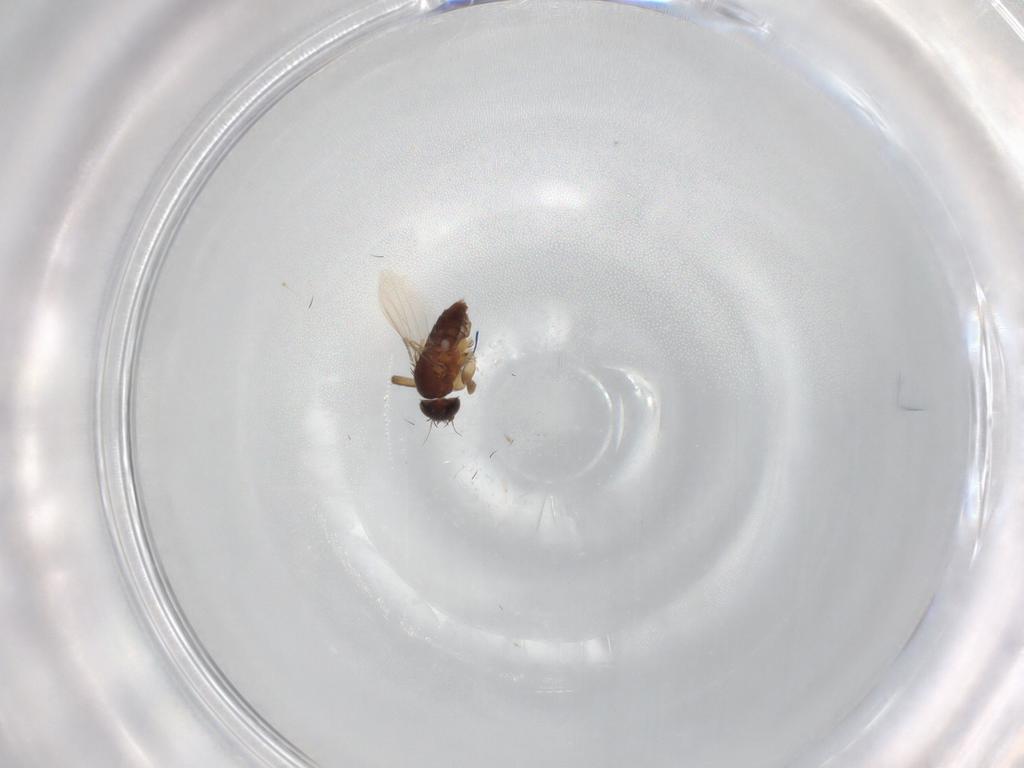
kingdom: Animalia
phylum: Arthropoda
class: Insecta
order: Diptera
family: Phoridae
